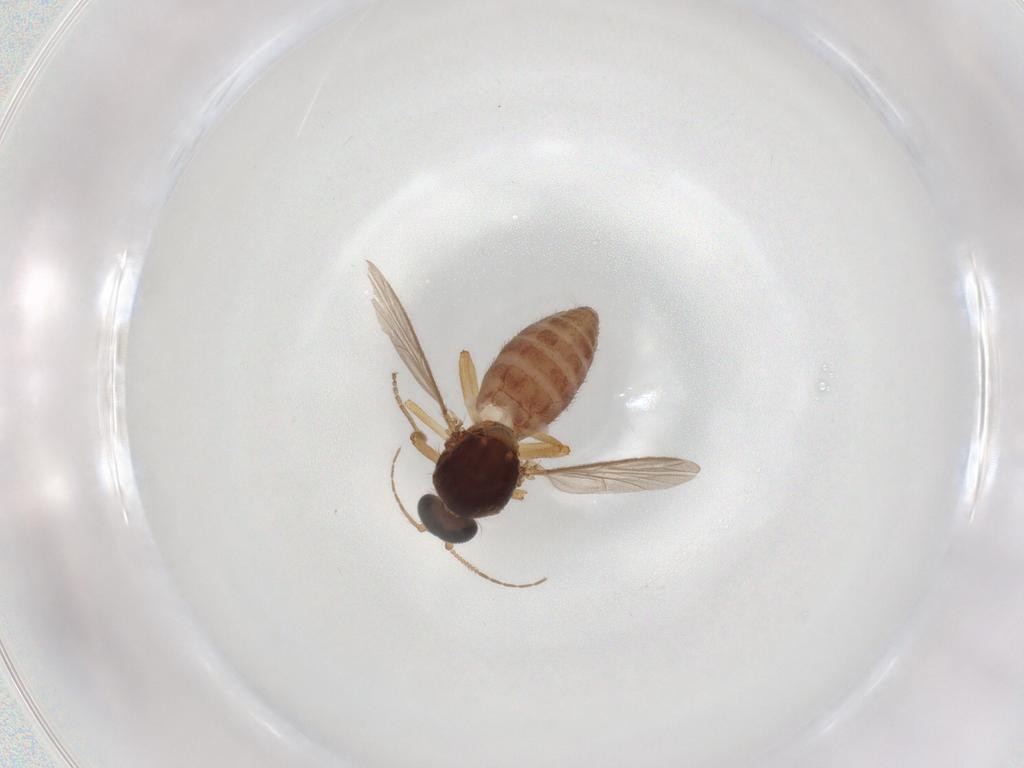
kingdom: Animalia
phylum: Arthropoda
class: Insecta
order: Diptera
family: Ceratopogonidae
